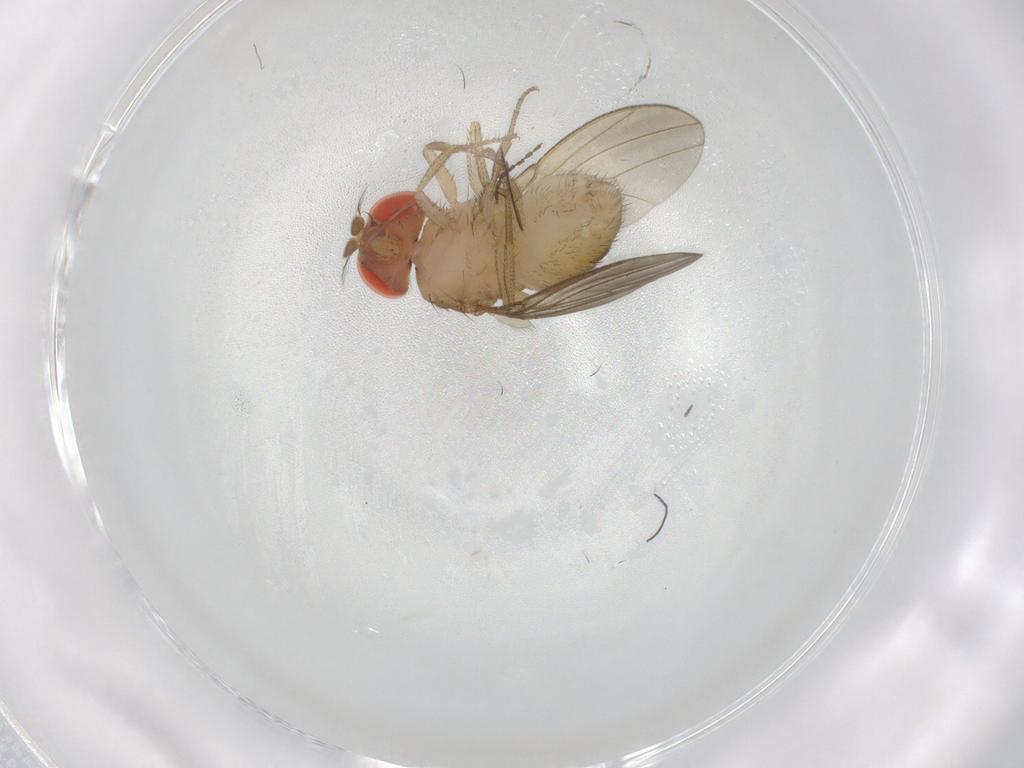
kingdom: Animalia
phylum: Arthropoda
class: Insecta
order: Diptera
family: Drosophilidae
